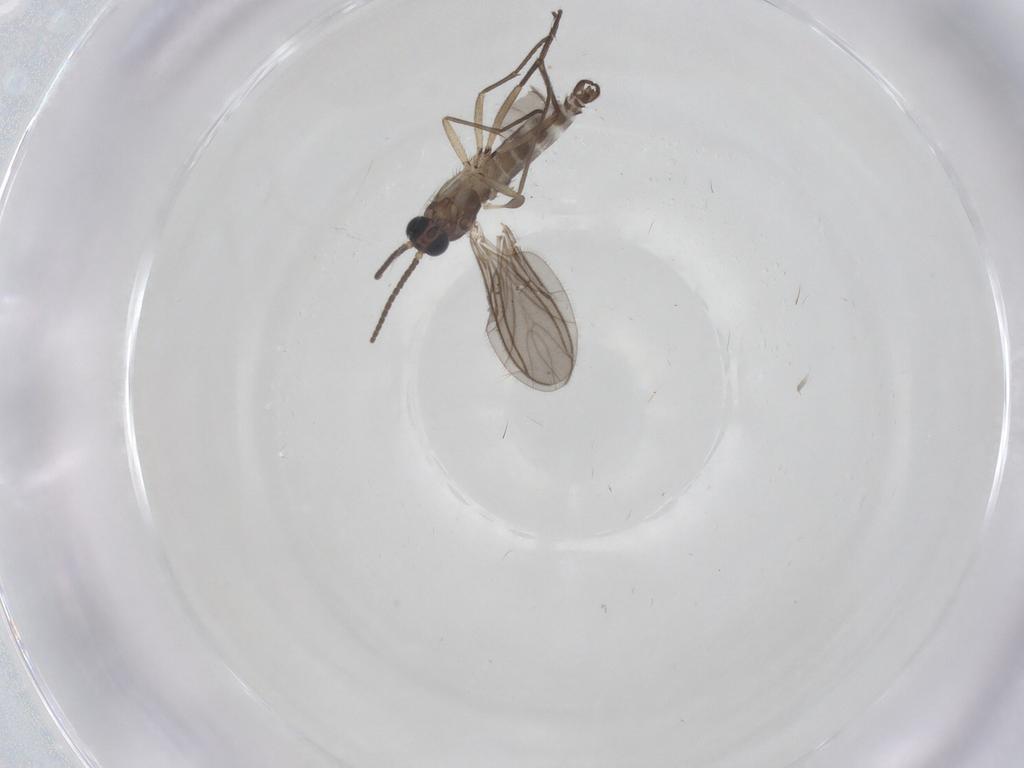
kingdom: Animalia
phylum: Arthropoda
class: Insecta
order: Diptera
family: Sciaridae
